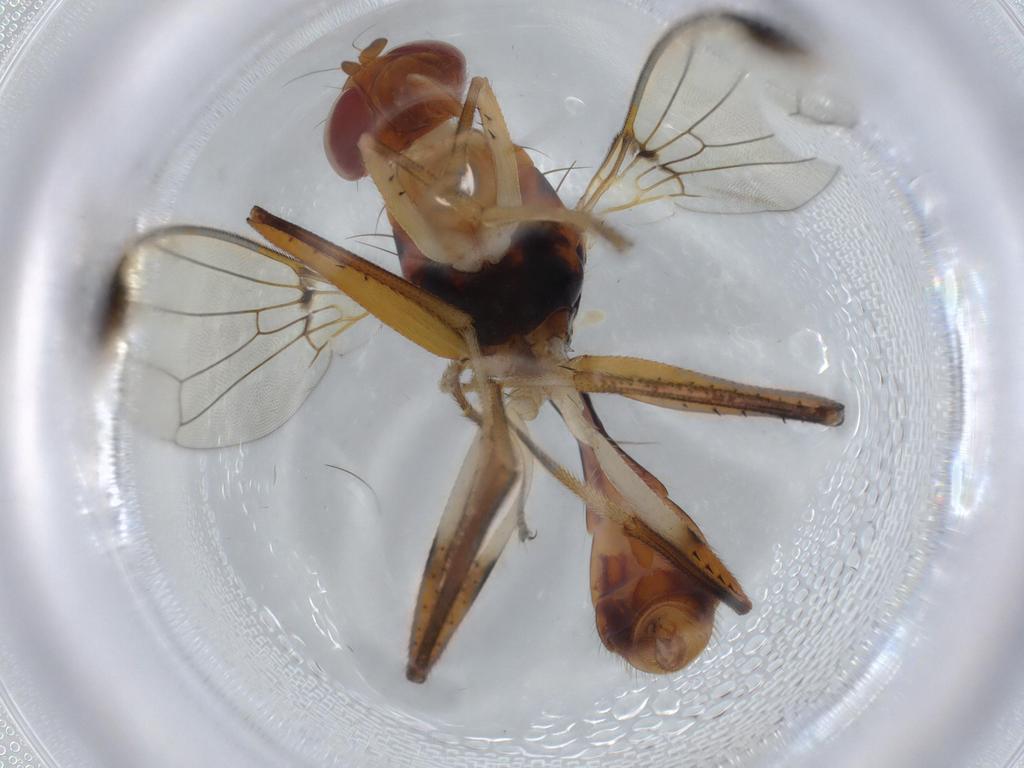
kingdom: Animalia
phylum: Arthropoda
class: Insecta
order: Diptera
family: Richardiidae
